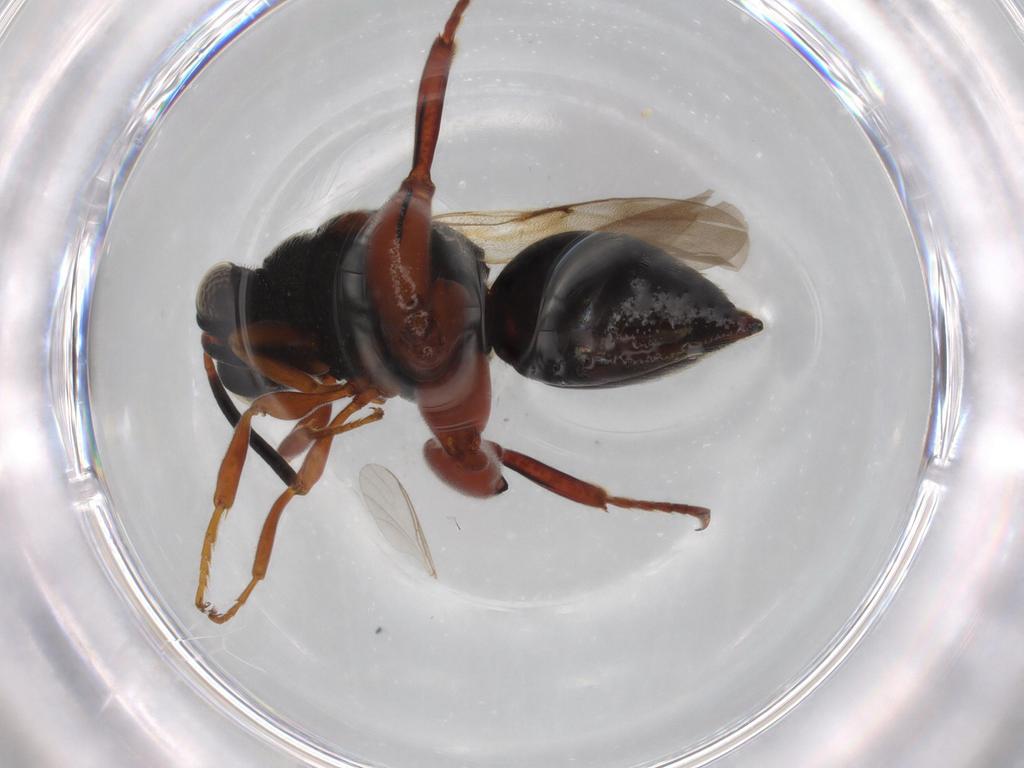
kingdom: Animalia
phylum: Arthropoda
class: Insecta
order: Hymenoptera
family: Chalcididae
